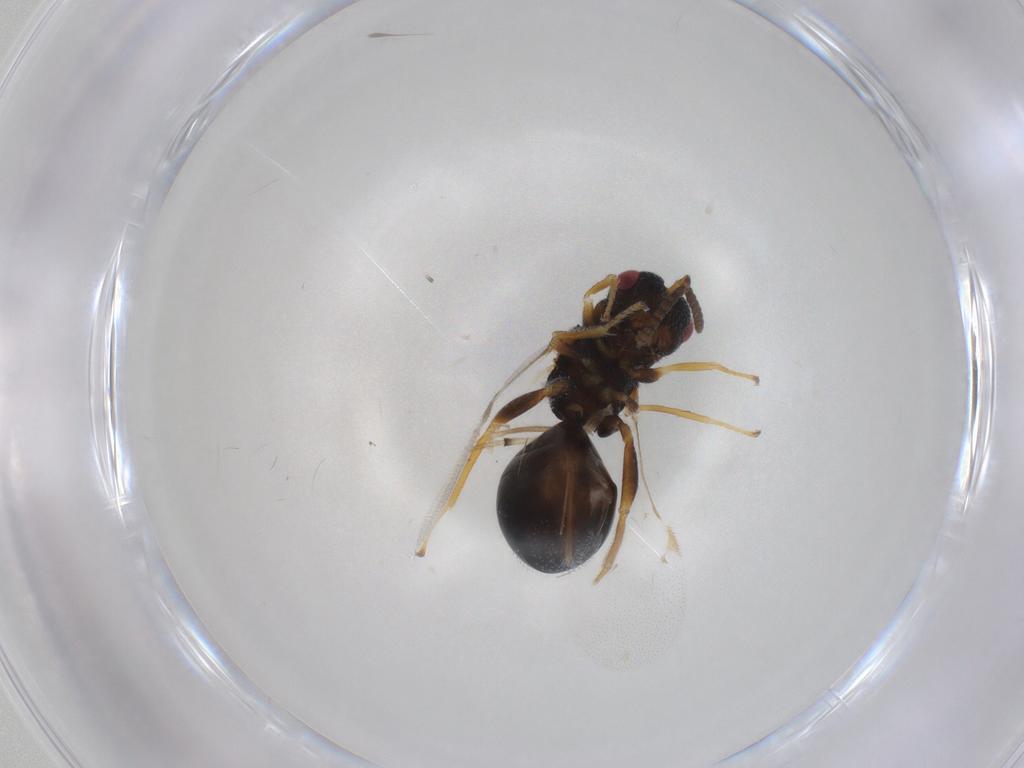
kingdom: Animalia
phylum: Arthropoda
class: Insecta
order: Hymenoptera
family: Eurytomidae
